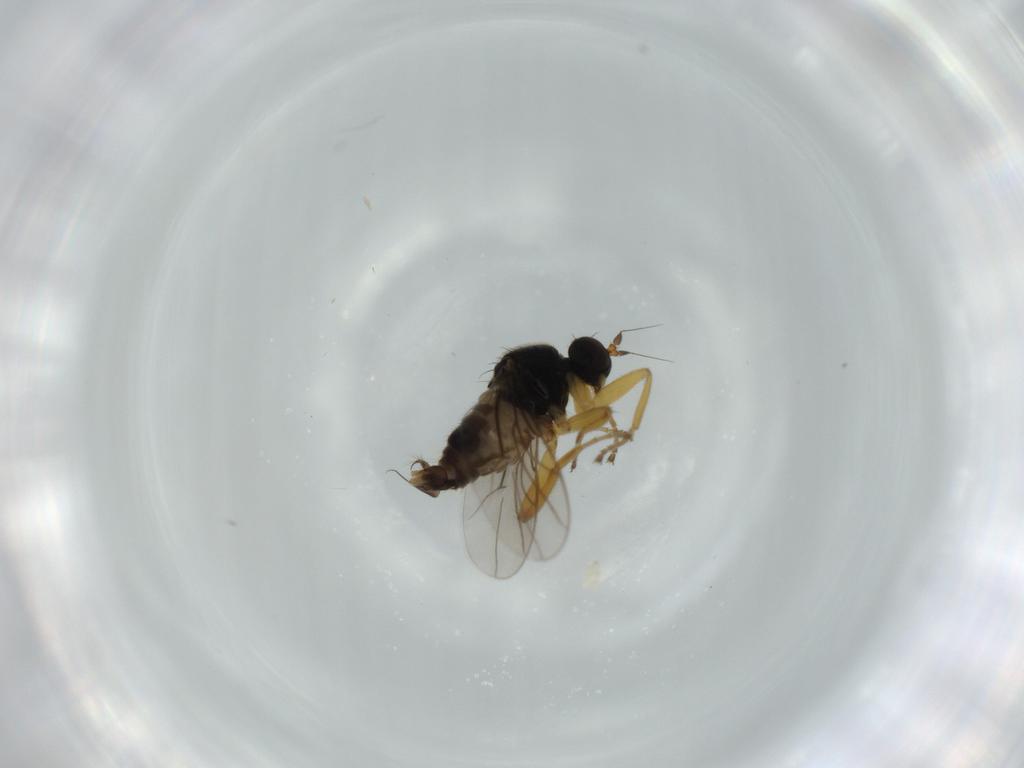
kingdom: Animalia
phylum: Arthropoda
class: Insecta
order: Diptera
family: Hybotidae
